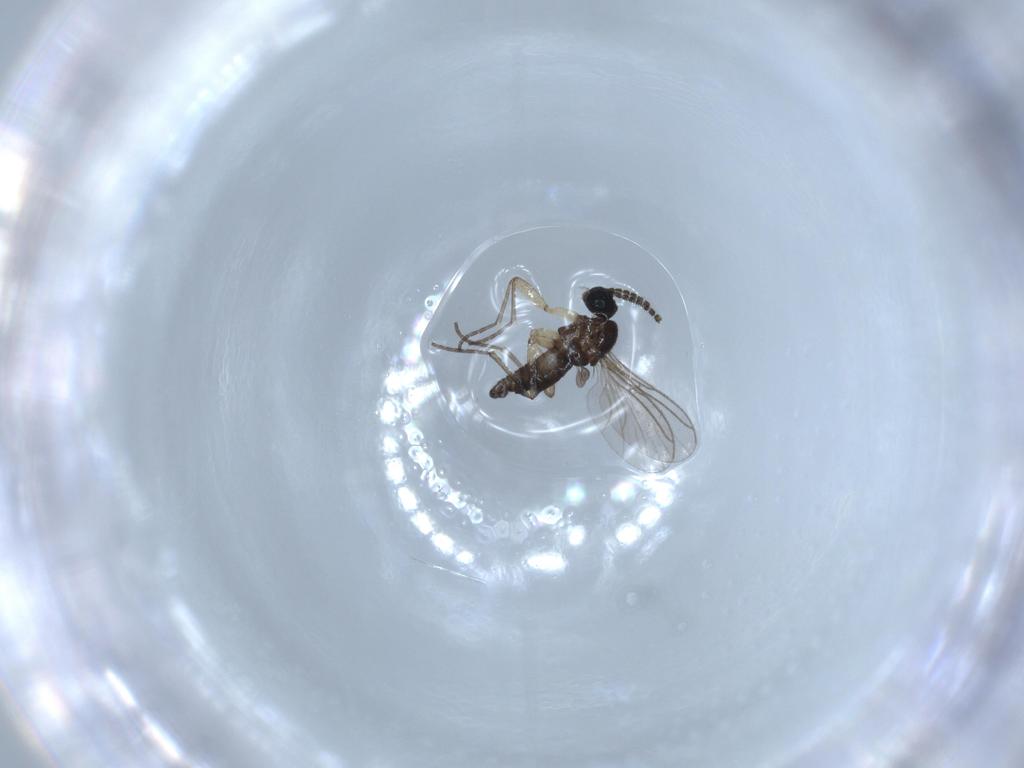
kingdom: Animalia
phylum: Arthropoda
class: Insecta
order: Diptera
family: Sciaridae
